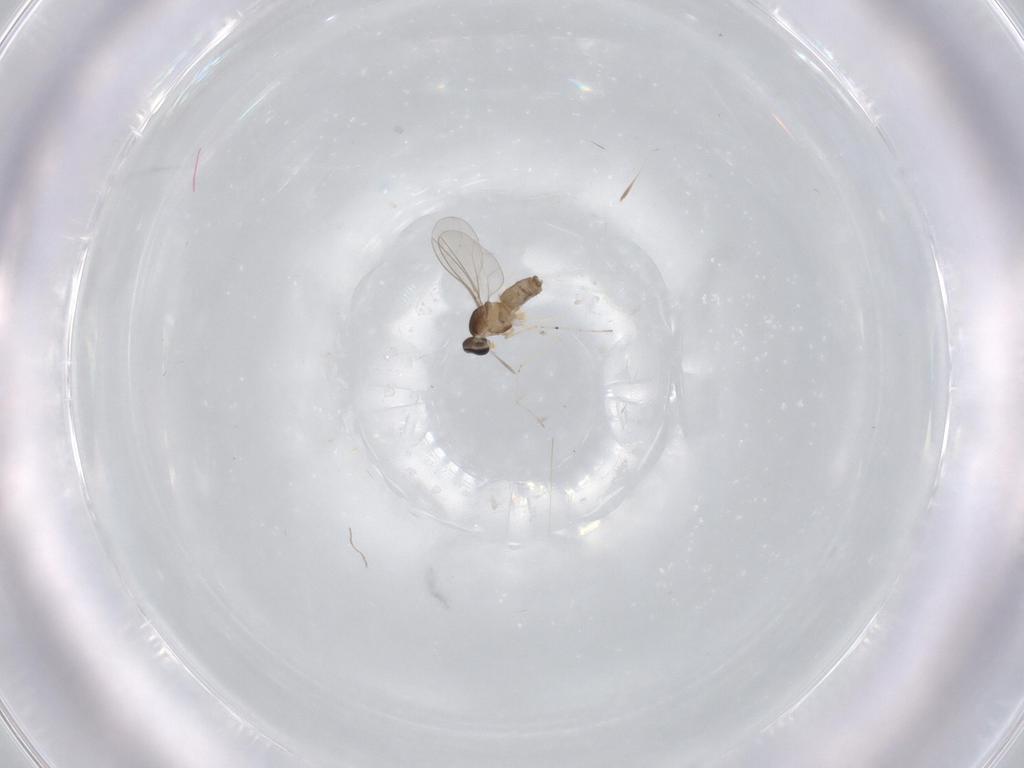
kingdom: Animalia
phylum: Arthropoda
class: Insecta
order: Diptera
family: Cecidomyiidae
